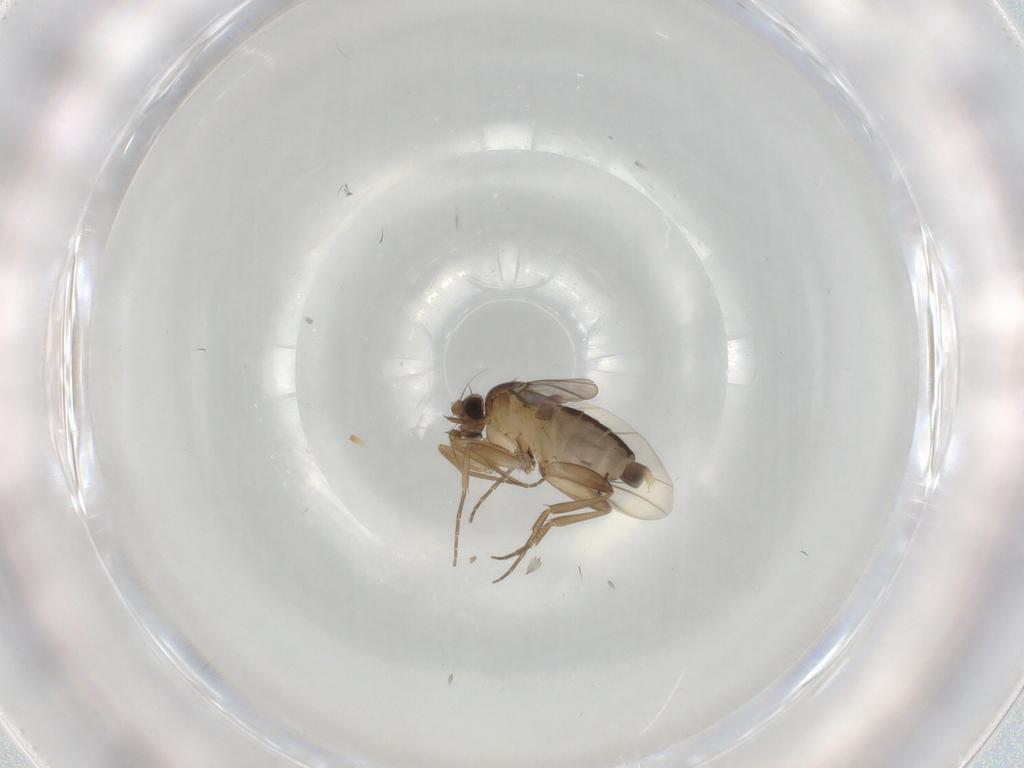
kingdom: Animalia
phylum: Arthropoda
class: Insecta
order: Diptera
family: Phoridae
